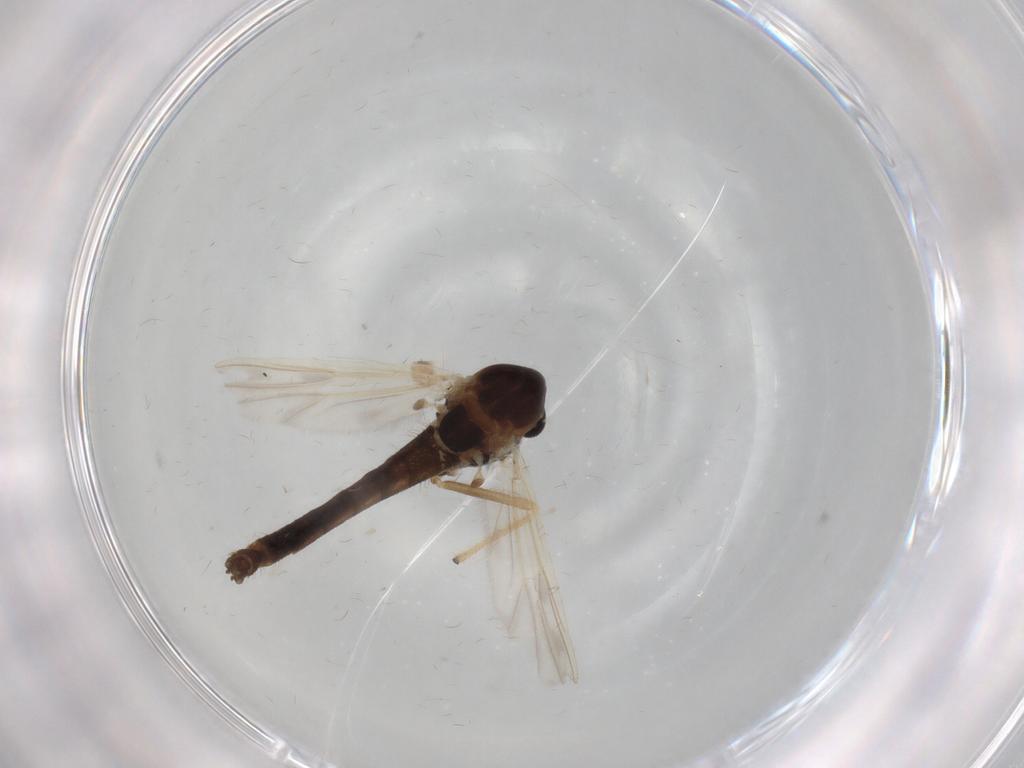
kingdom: Animalia
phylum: Arthropoda
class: Insecta
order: Diptera
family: Chironomidae
